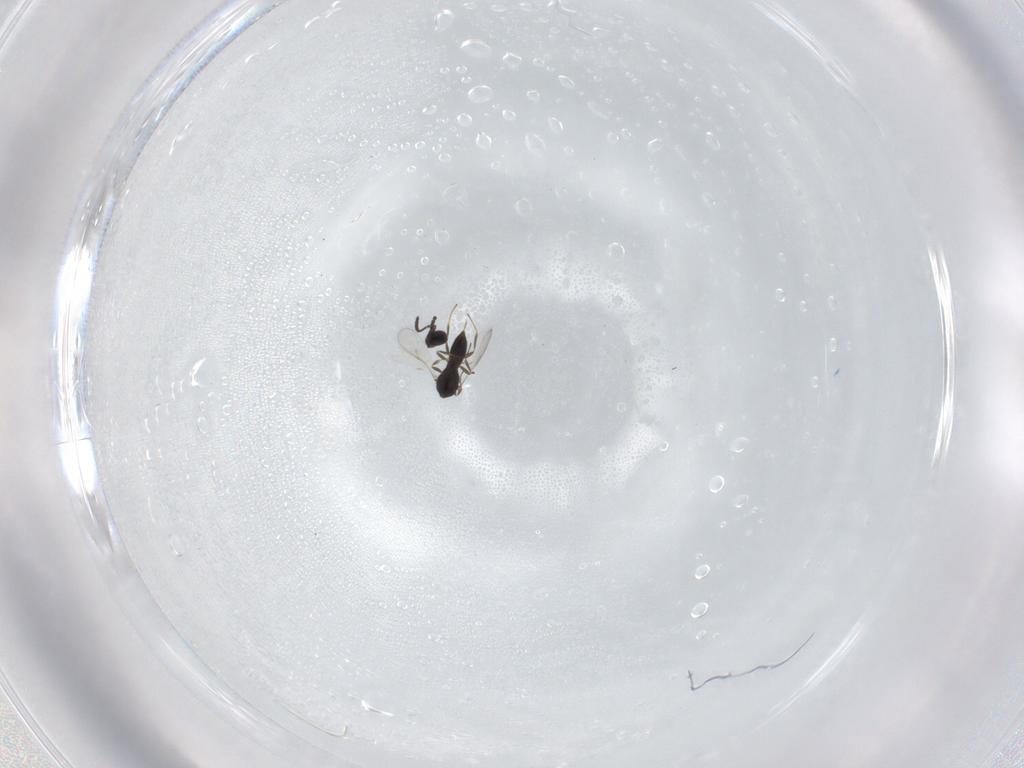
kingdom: Animalia
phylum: Arthropoda
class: Insecta
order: Hymenoptera
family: Scelionidae
